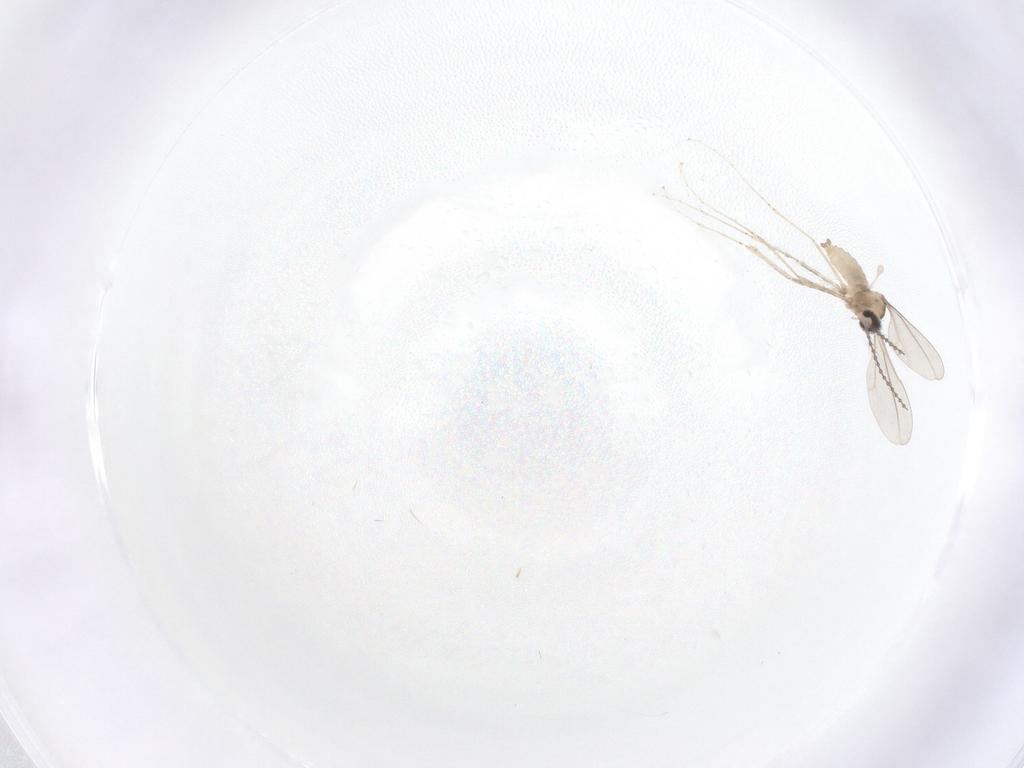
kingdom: Animalia
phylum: Arthropoda
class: Insecta
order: Diptera
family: Cecidomyiidae
